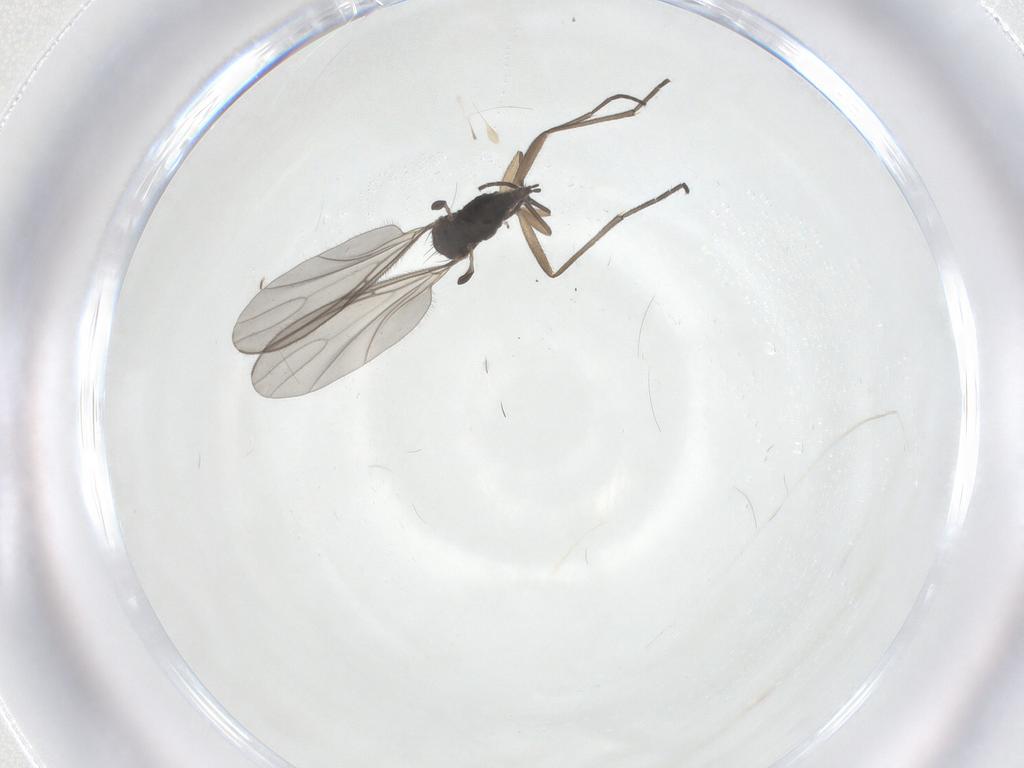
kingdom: Animalia
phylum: Arthropoda
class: Insecta
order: Diptera
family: Sciaridae
